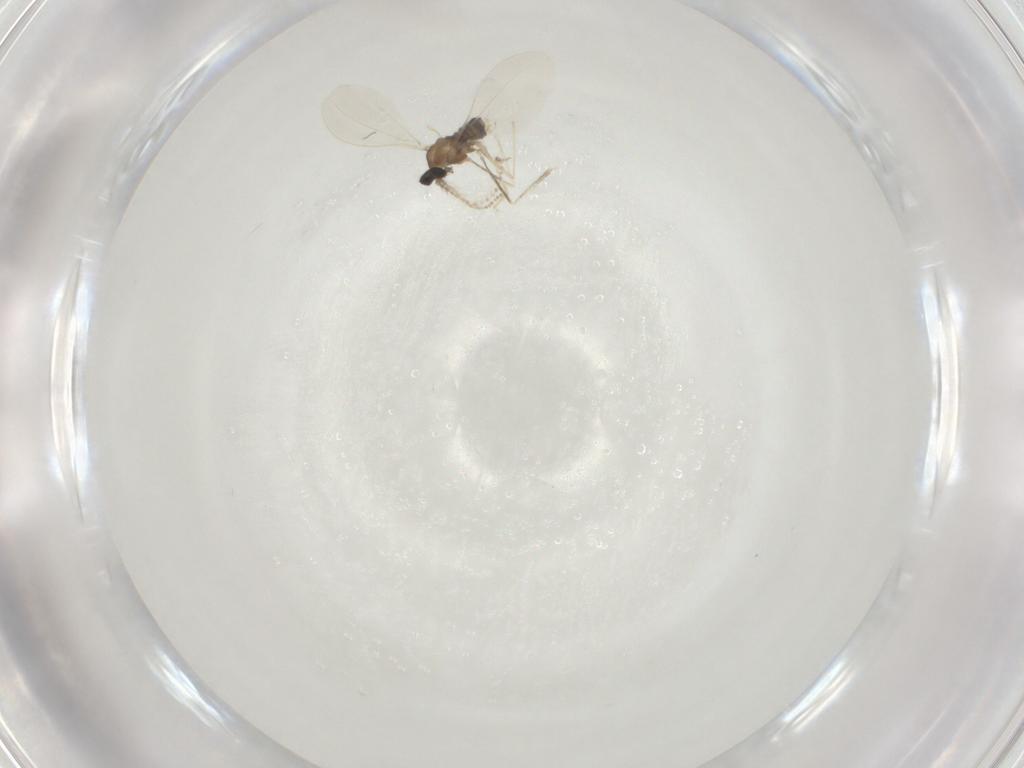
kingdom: Animalia
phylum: Arthropoda
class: Insecta
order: Diptera
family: Cecidomyiidae
